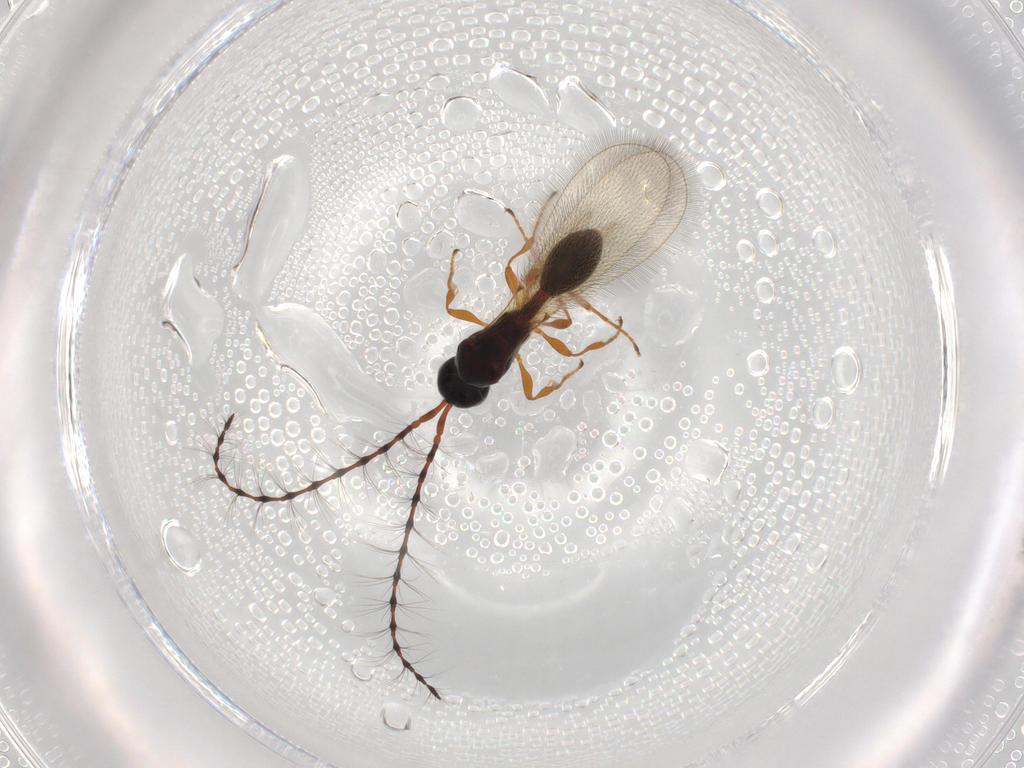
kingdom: Animalia
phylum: Arthropoda
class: Insecta
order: Hymenoptera
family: Diapriidae
